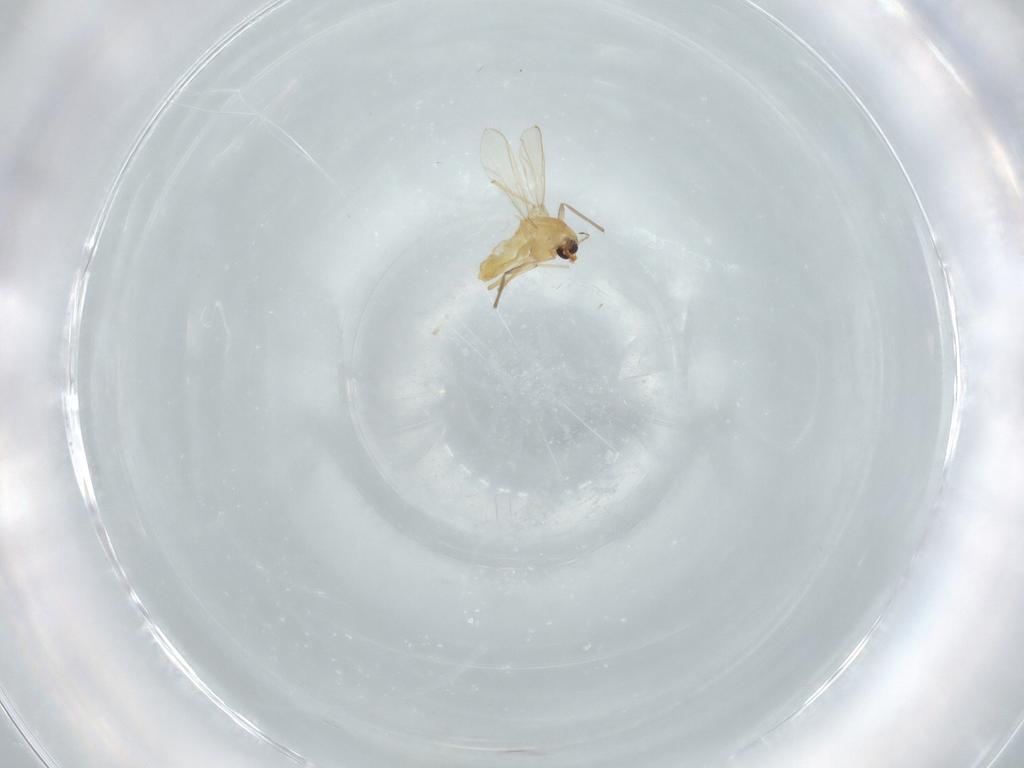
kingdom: Animalia
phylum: Arthropoda
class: Insecta
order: Diptera
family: Chironomidae
